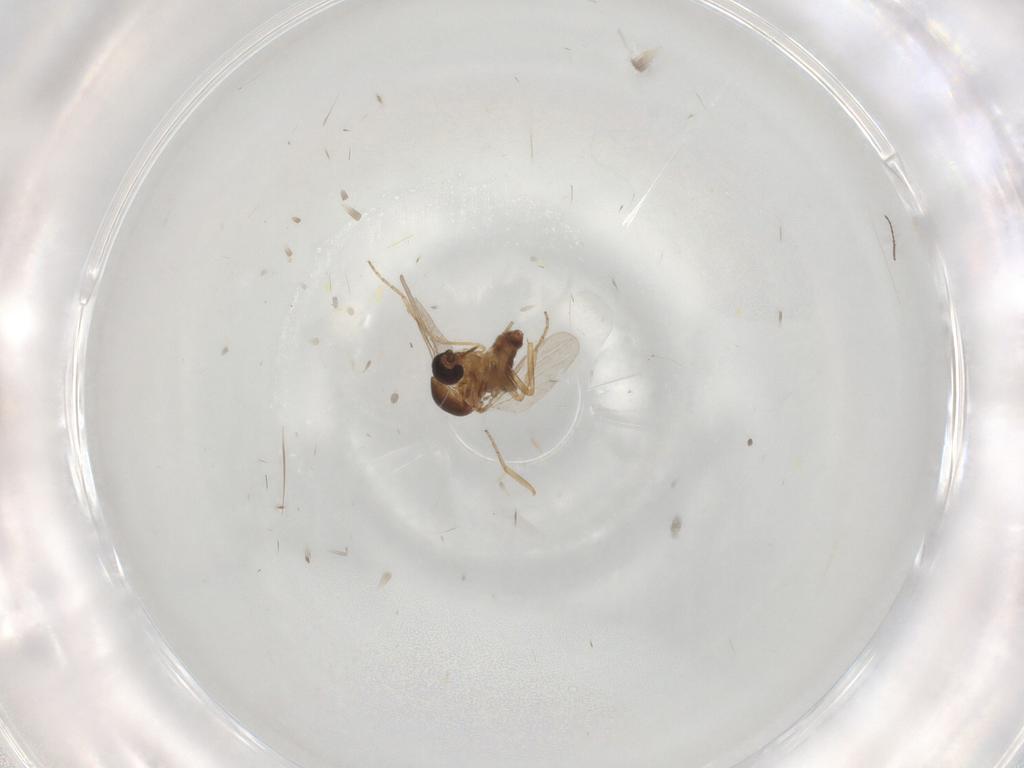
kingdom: Animalia
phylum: Arthropoda
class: Insecta
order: Diptera
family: Ceratopogonidae
